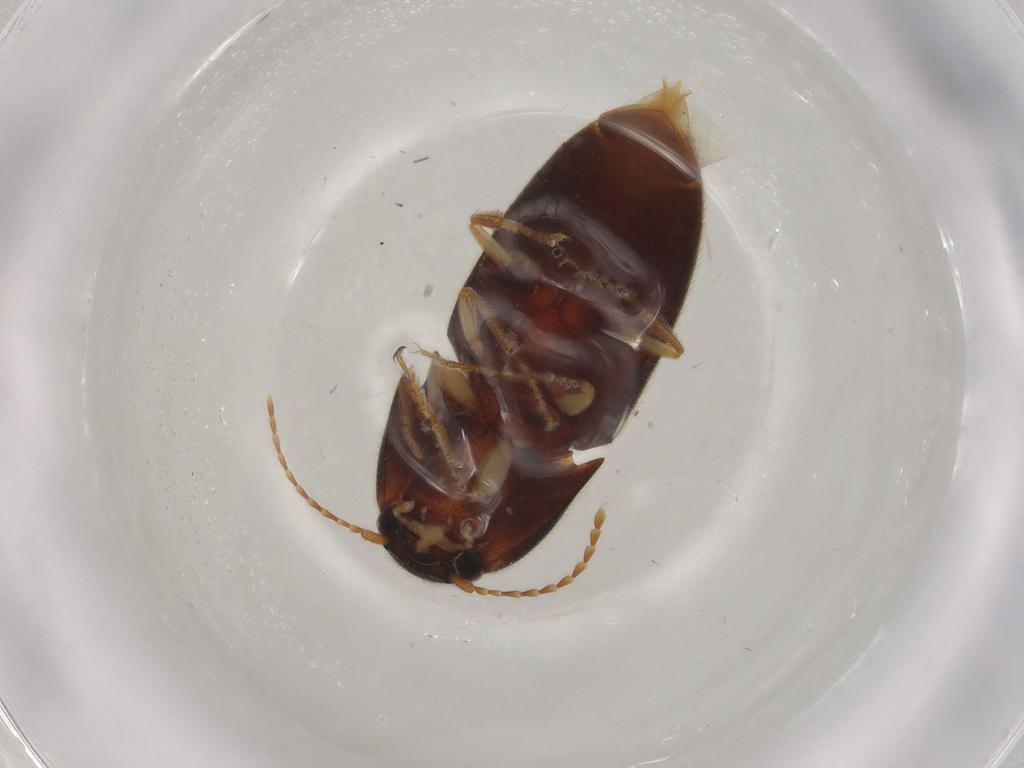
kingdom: Animalia
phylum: Arthropoda
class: Insecta
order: Coleoptera
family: Elateridae
